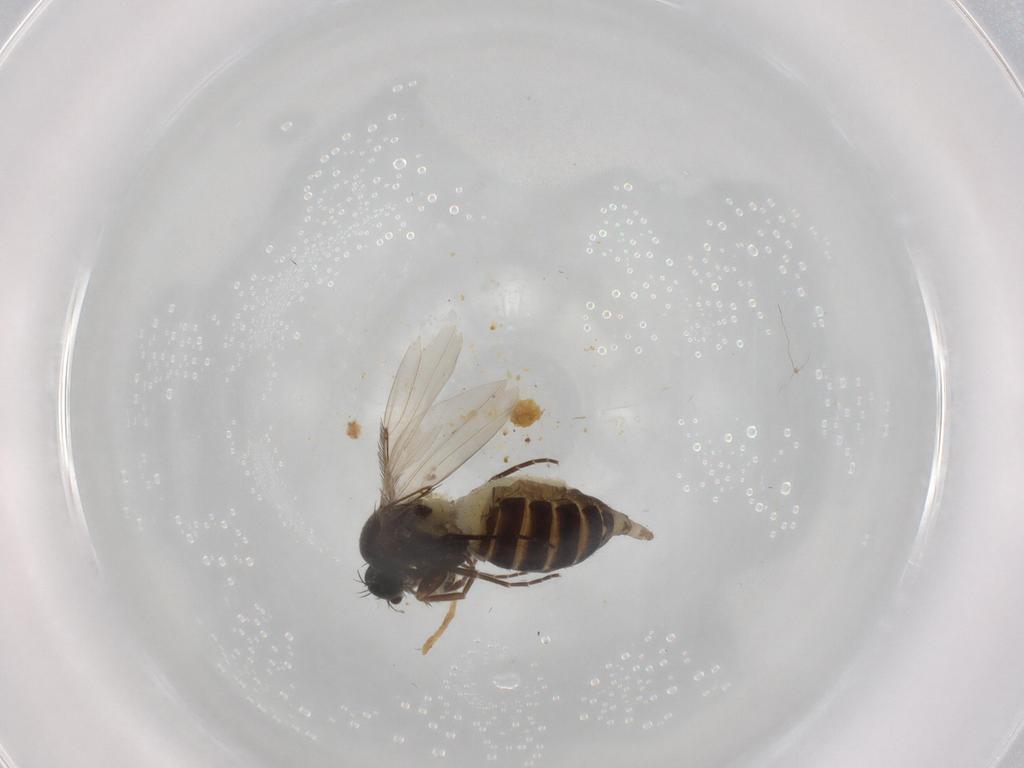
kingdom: Animalia
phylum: Arthropoda
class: Insecta
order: Diptera
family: Phoridae
